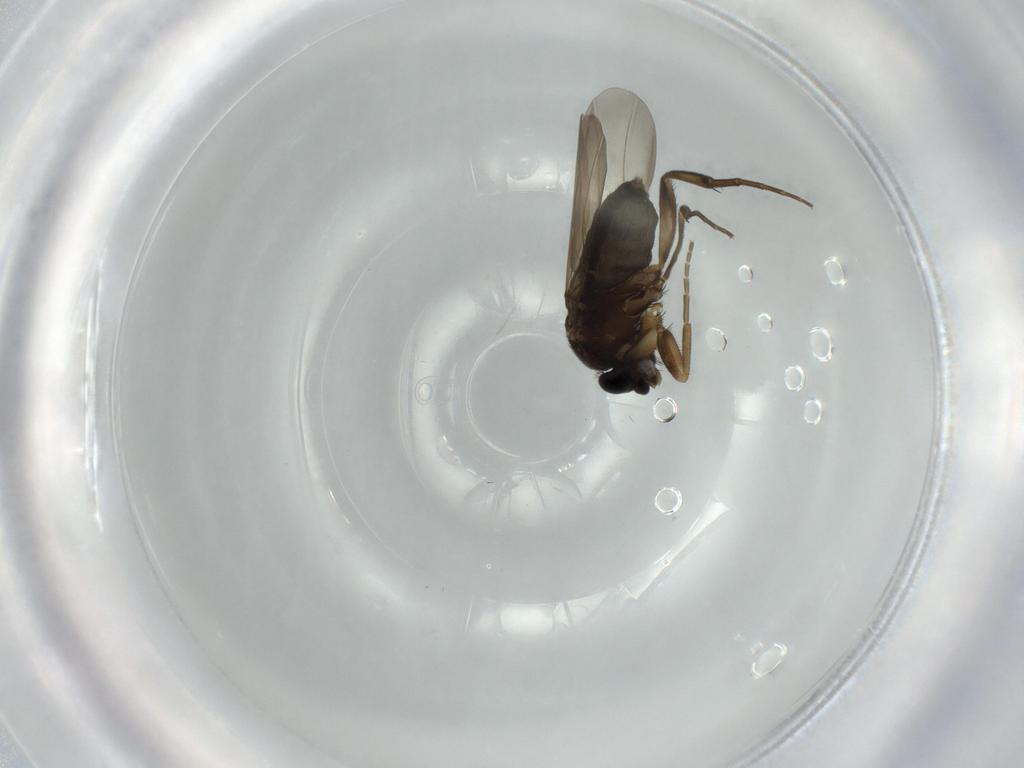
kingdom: Animalia
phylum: Arthropoda
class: Insecta
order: Diptera
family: Phoridae
